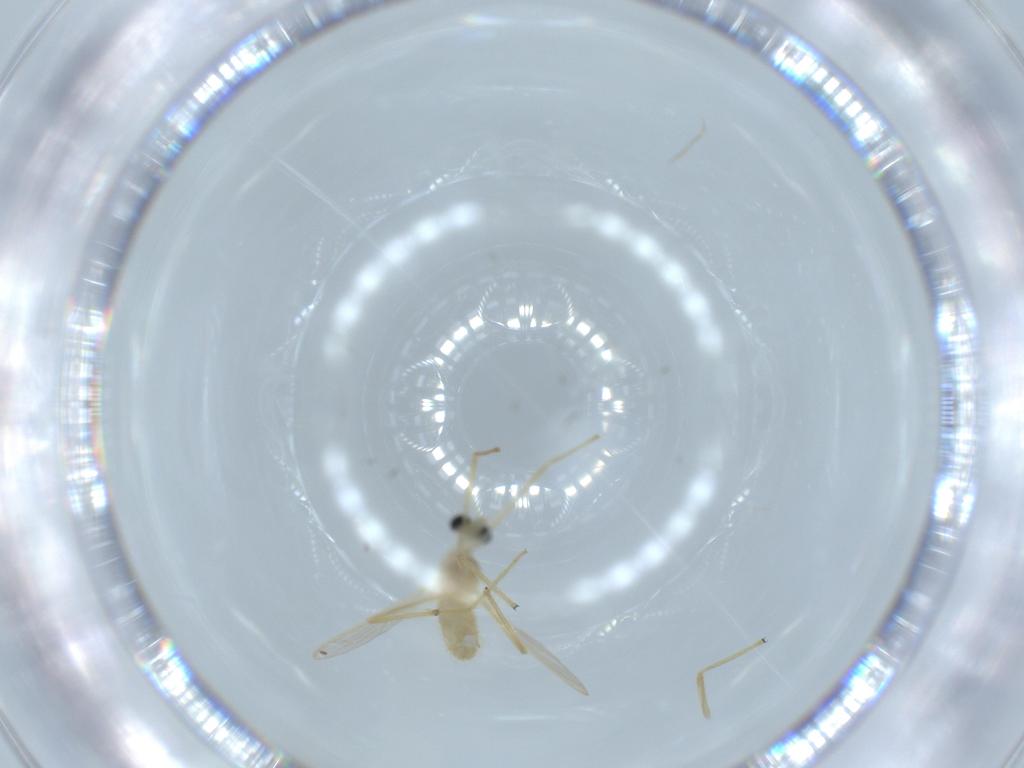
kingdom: Animalia
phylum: Arthropoda
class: Insecta
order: Diptera
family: Chironomidae
